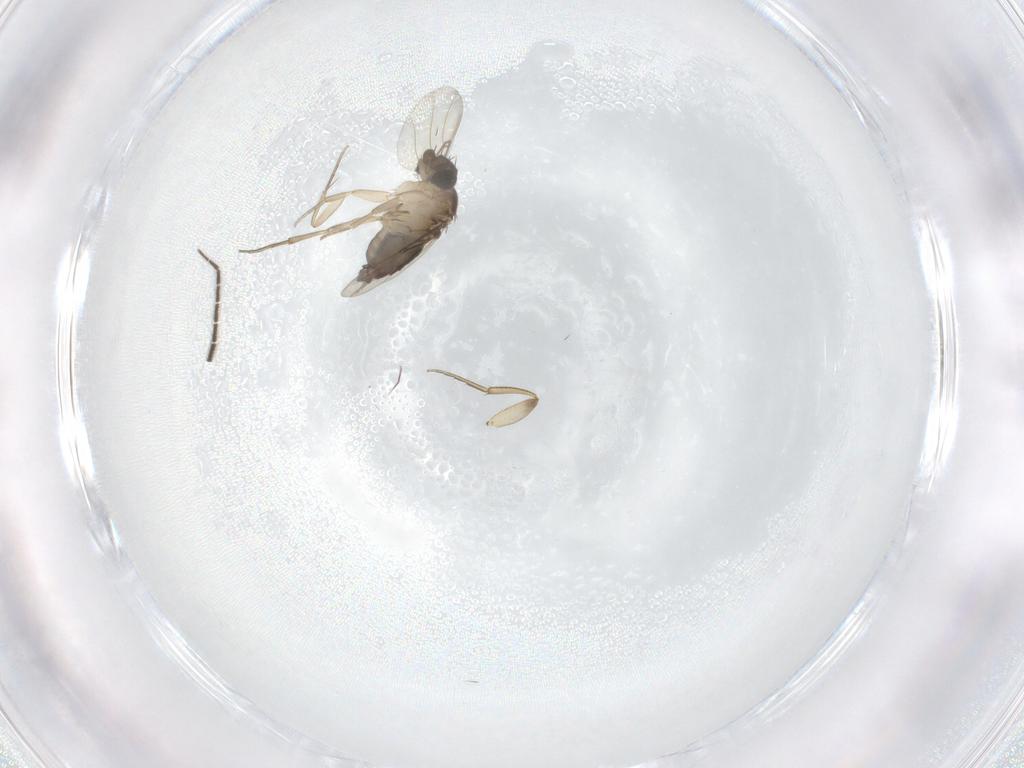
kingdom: Animalia
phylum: Arthropoda
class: Insecta
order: Diptera
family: Phoridae
